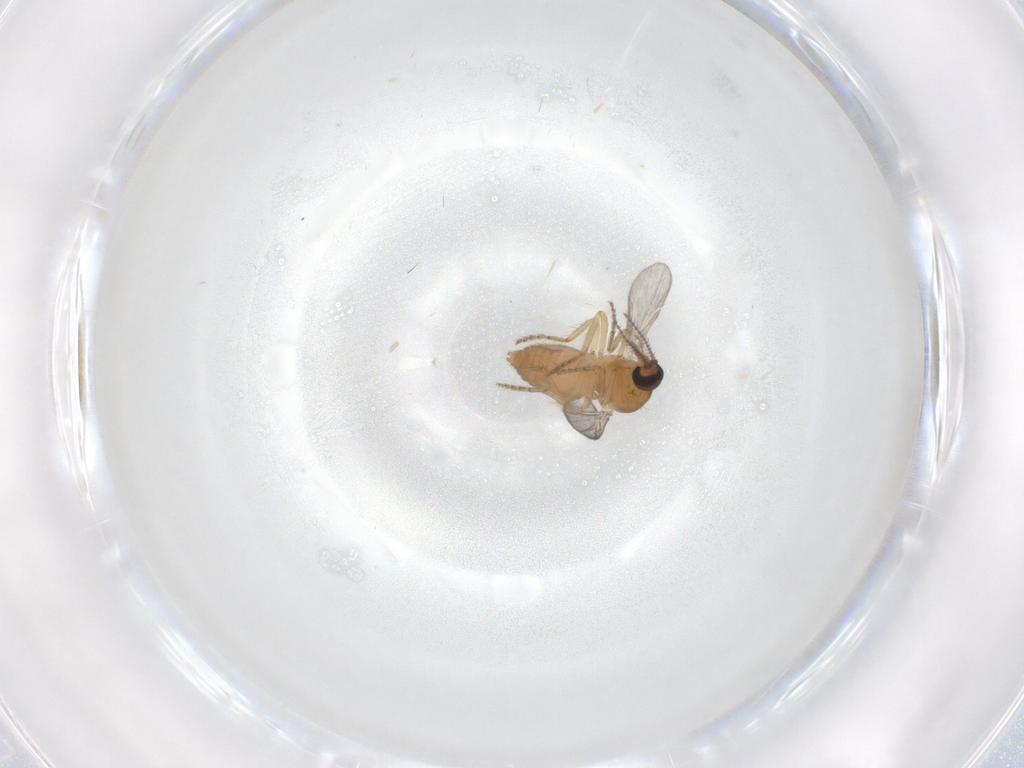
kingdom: Animalia
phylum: Arthropoda
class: Insecta
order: Diptera
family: Ceratopogonidae
